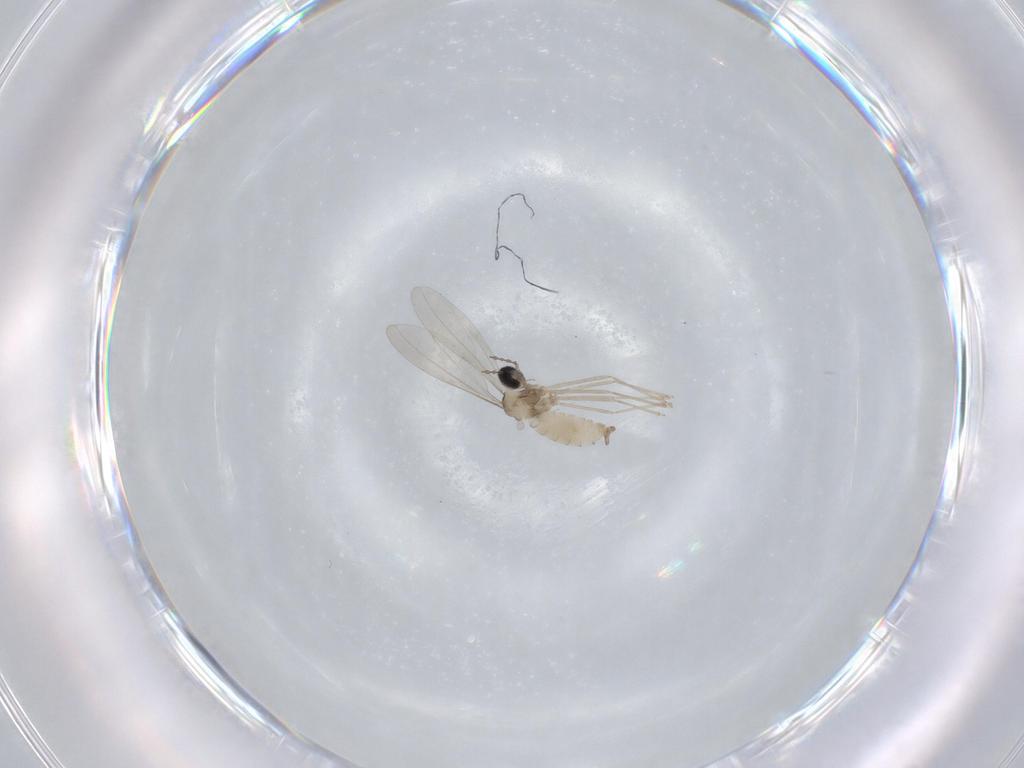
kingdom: Animalia
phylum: Arthropoda
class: Insecta
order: Diptera
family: Cecidomyiidae
